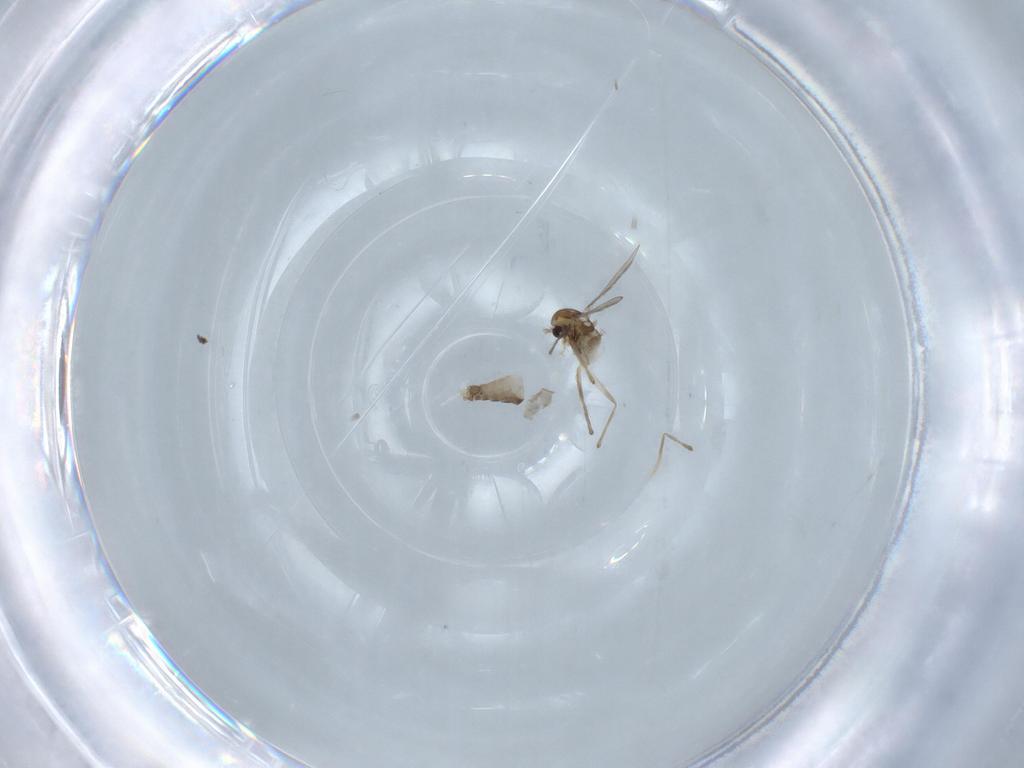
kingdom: Animalia
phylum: Arthropoda
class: Insecta
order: Diptera
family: Chironomidae
